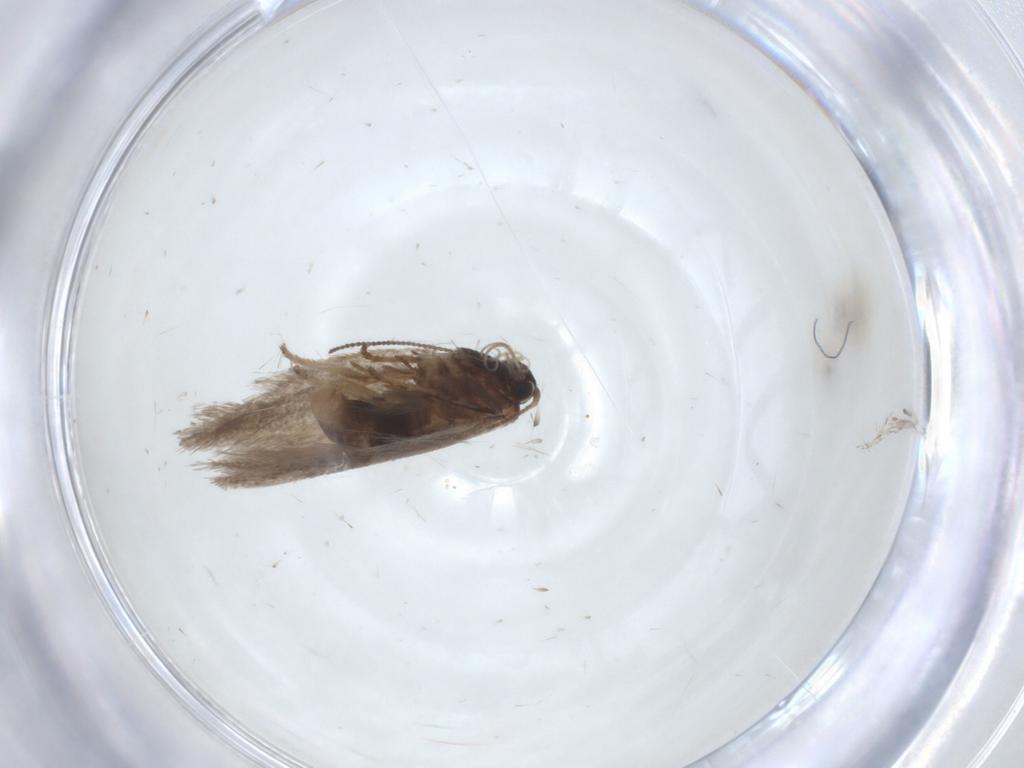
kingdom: Animalia
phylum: Arthropoda
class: Insecta
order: Lepidoptera
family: Nepticulidae
